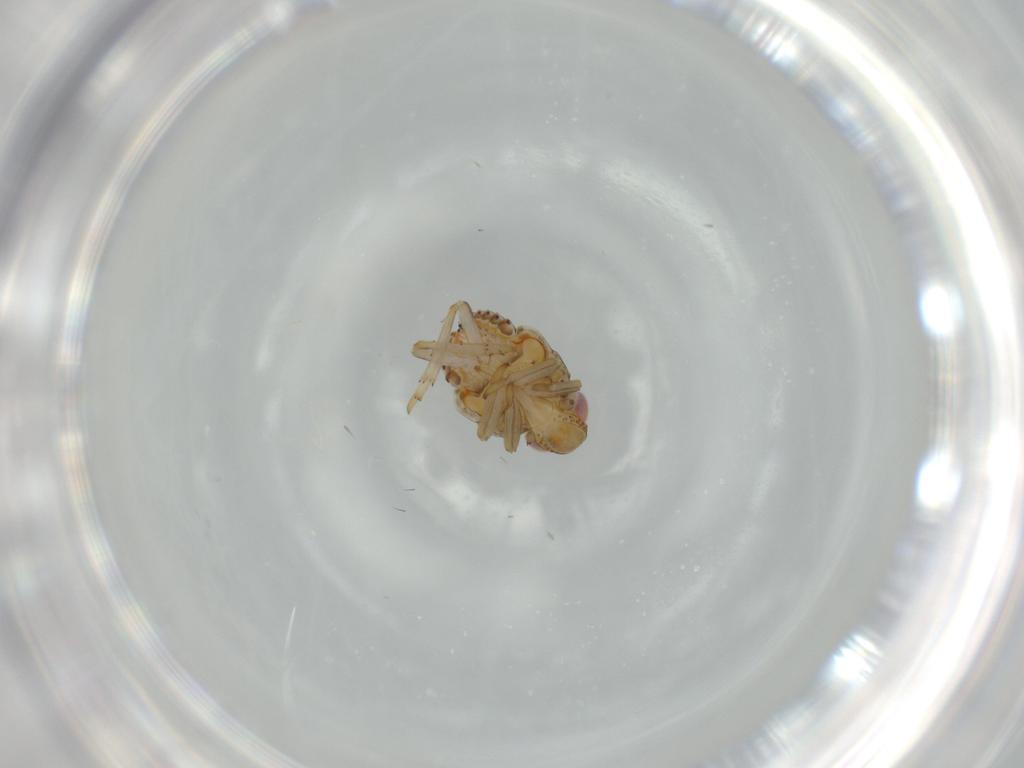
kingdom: Animalia
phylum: Arthropoda
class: Insecta
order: Hemiptera
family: Issidae
